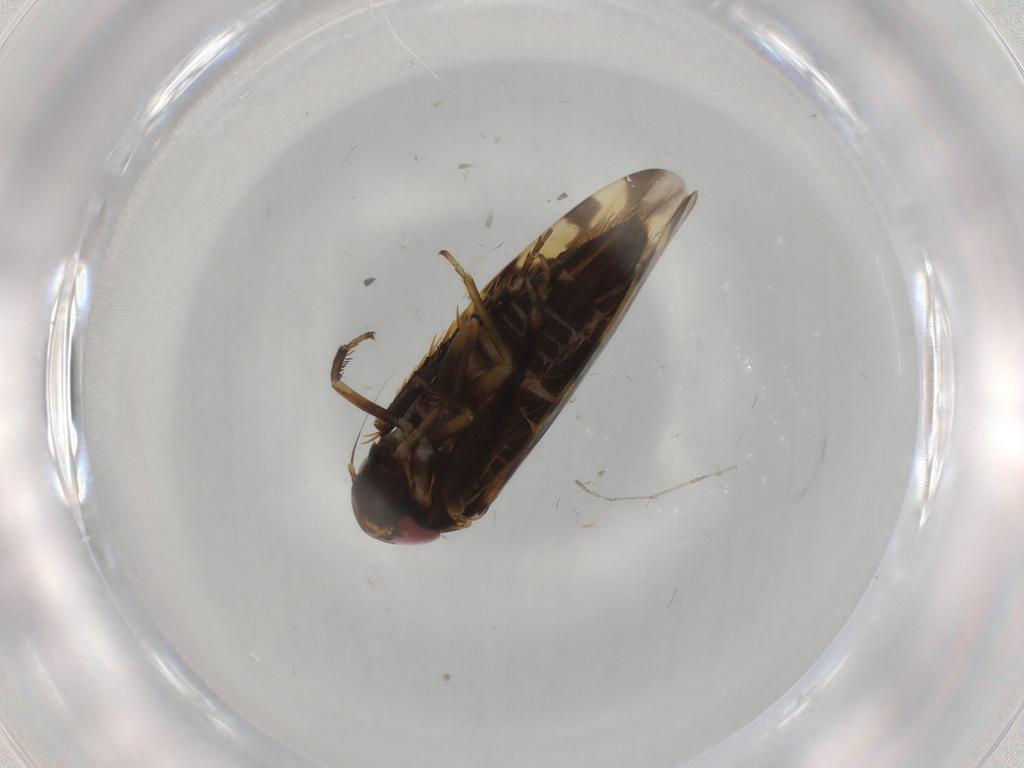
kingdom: Animalia
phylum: Arthropoda
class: Insecta
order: Hemiptera
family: Cicadellidae
